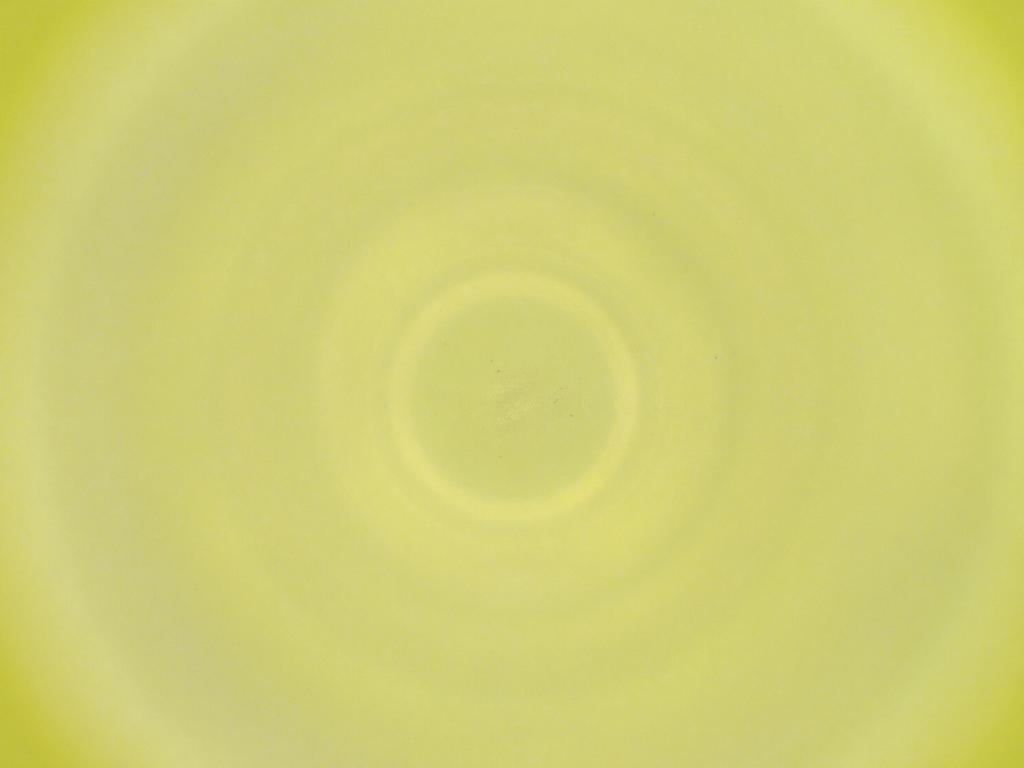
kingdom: Animalia
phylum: Arthropoda
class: Insecta
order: Diptera
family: Cecidomyiidae
